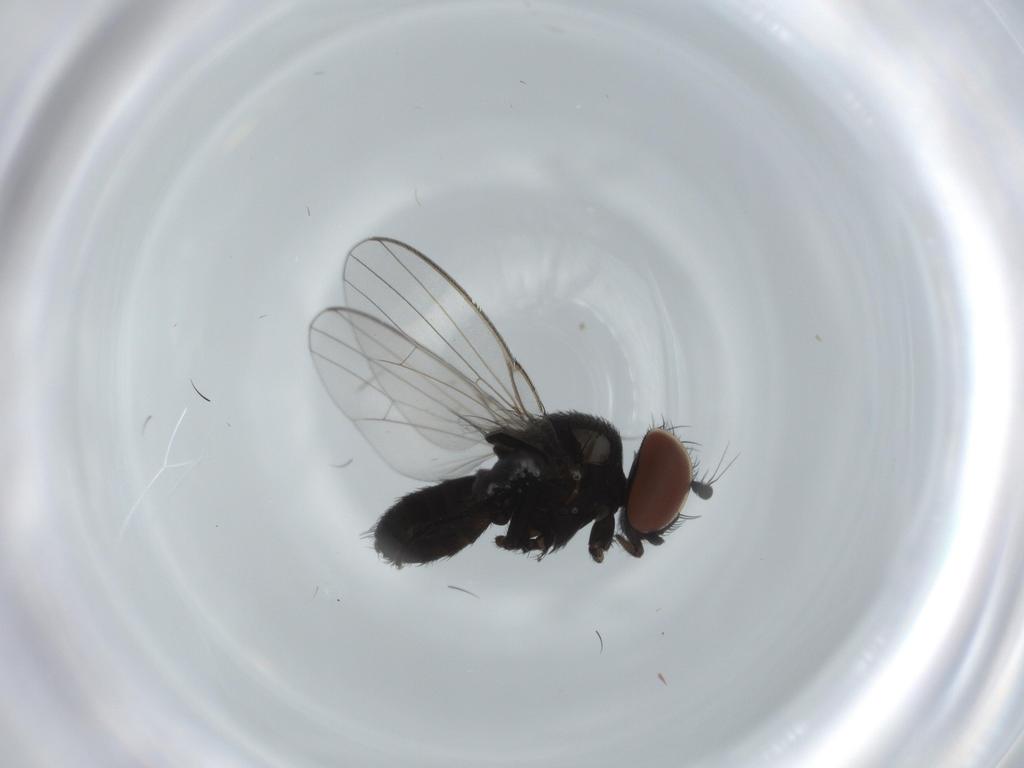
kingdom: Animalia
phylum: Arthropoda
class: Insecta
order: Diptera
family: Milichiidae
